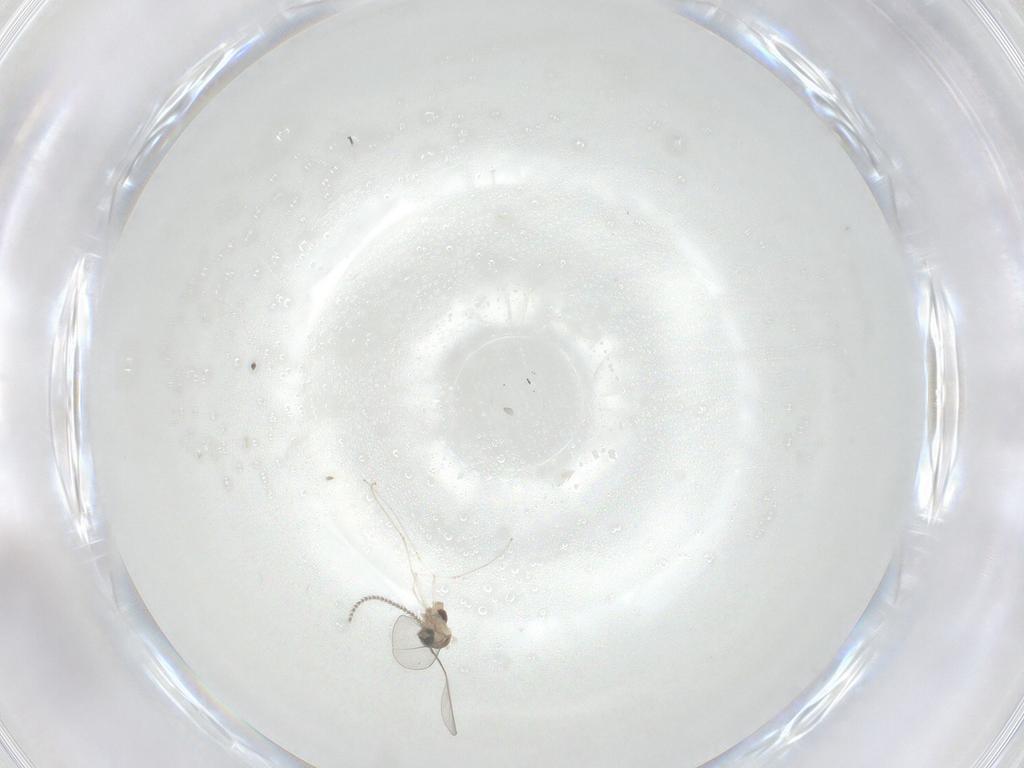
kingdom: Animalia
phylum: Arthropoda
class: Insecta
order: Diptera
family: Cecidomyiidae
